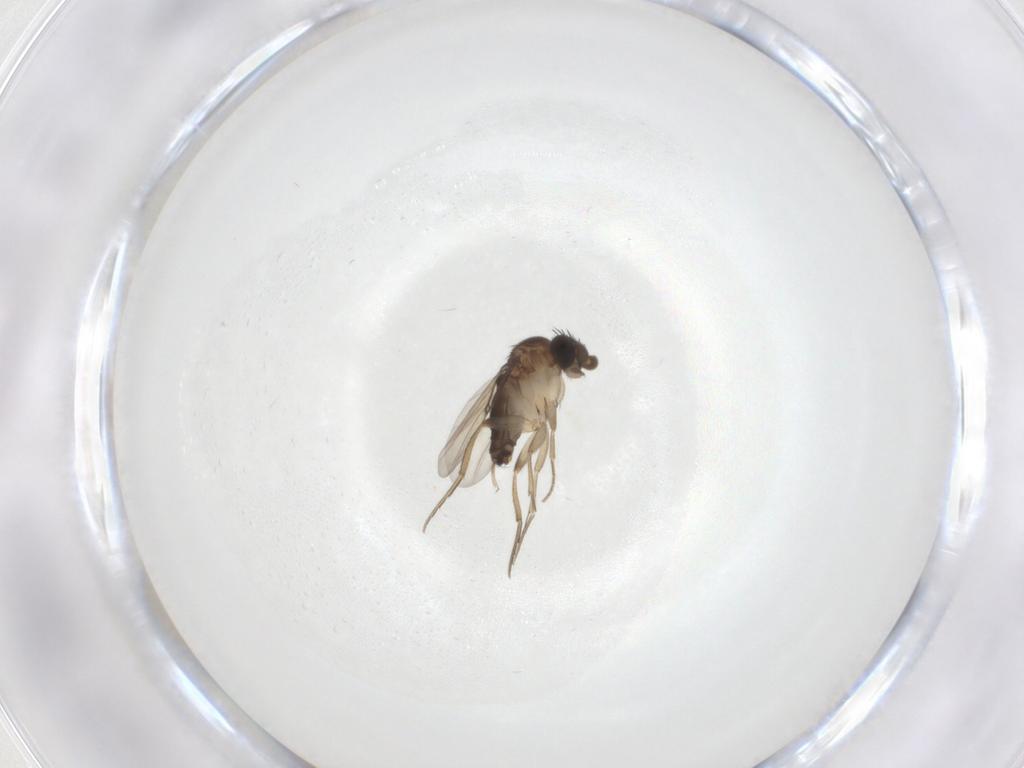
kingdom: Animalia
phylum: Arthropoda
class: Insecta
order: Diptera
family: Phoridae
